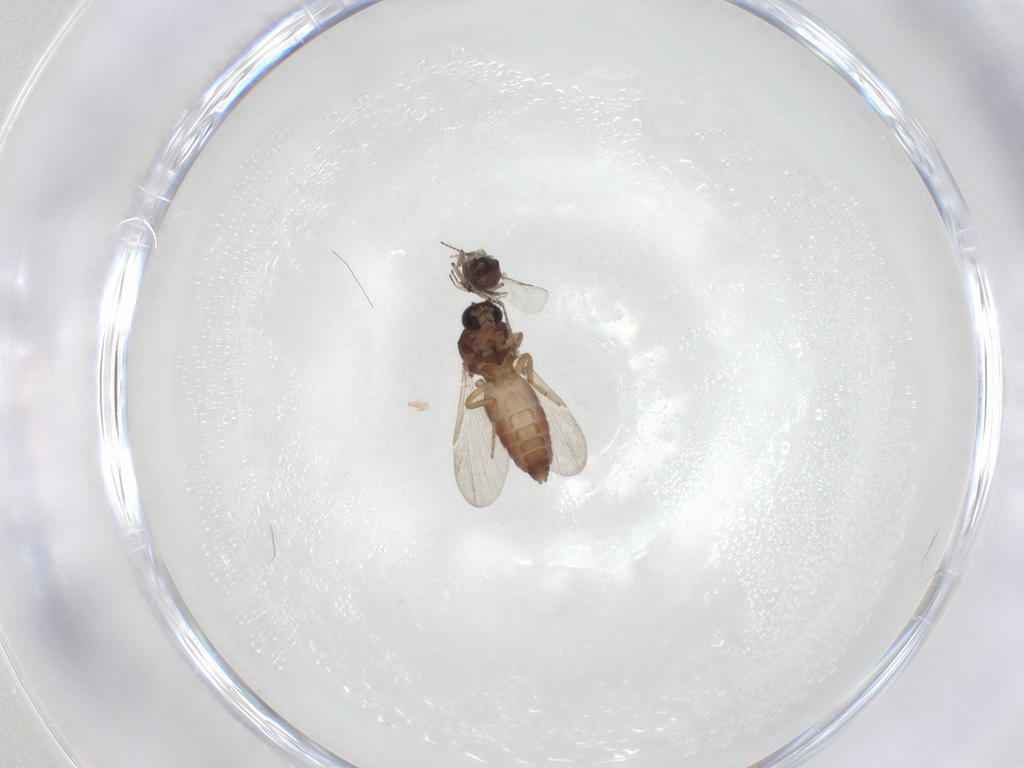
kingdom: Animalia
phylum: Arthropoda
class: Insecta
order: Diptera
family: Ceratopogonidae
